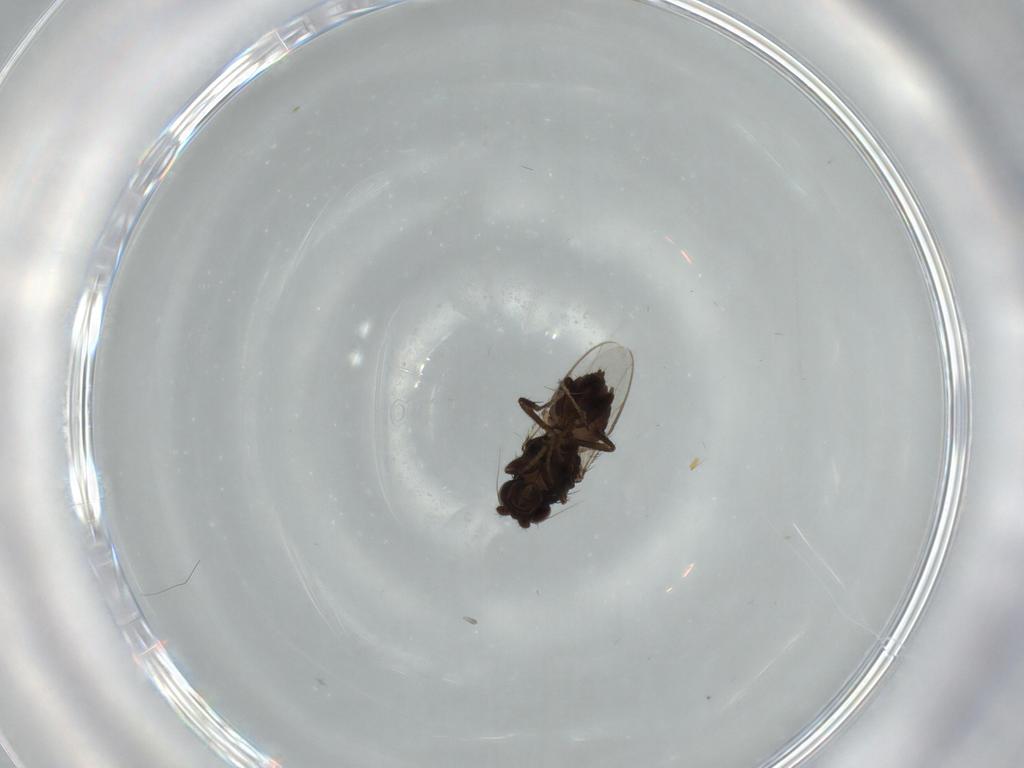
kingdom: Animalia
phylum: Arthropoda
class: Insecta
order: Diptera
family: Sphaeroceridae
